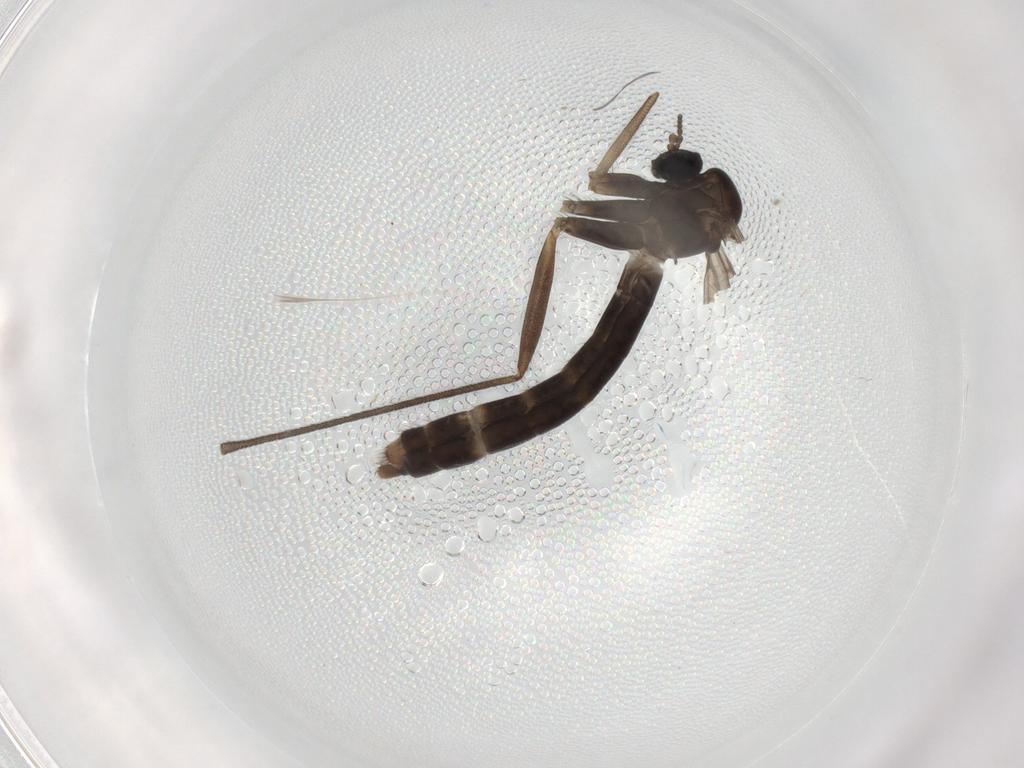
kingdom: Animalia
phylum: Arthropoda
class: Insecta
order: Diptera
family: Keroplatidae
